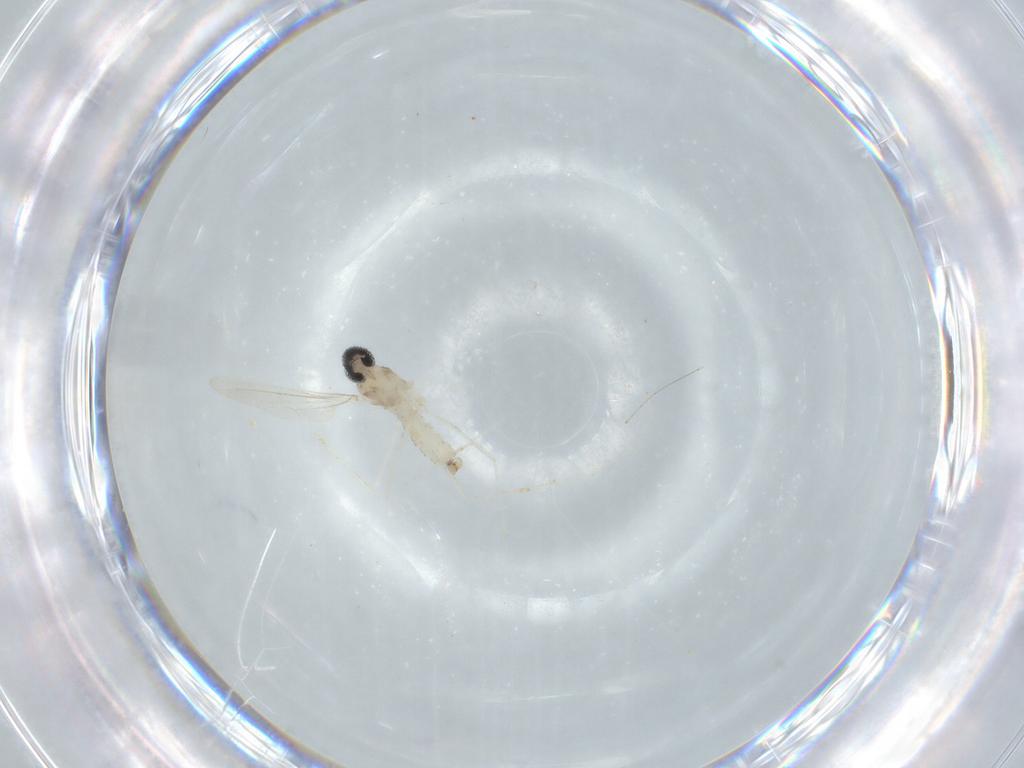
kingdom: Animalia
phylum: Arthropoda
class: Insecta
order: Diptera
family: Cecidomyiidae
